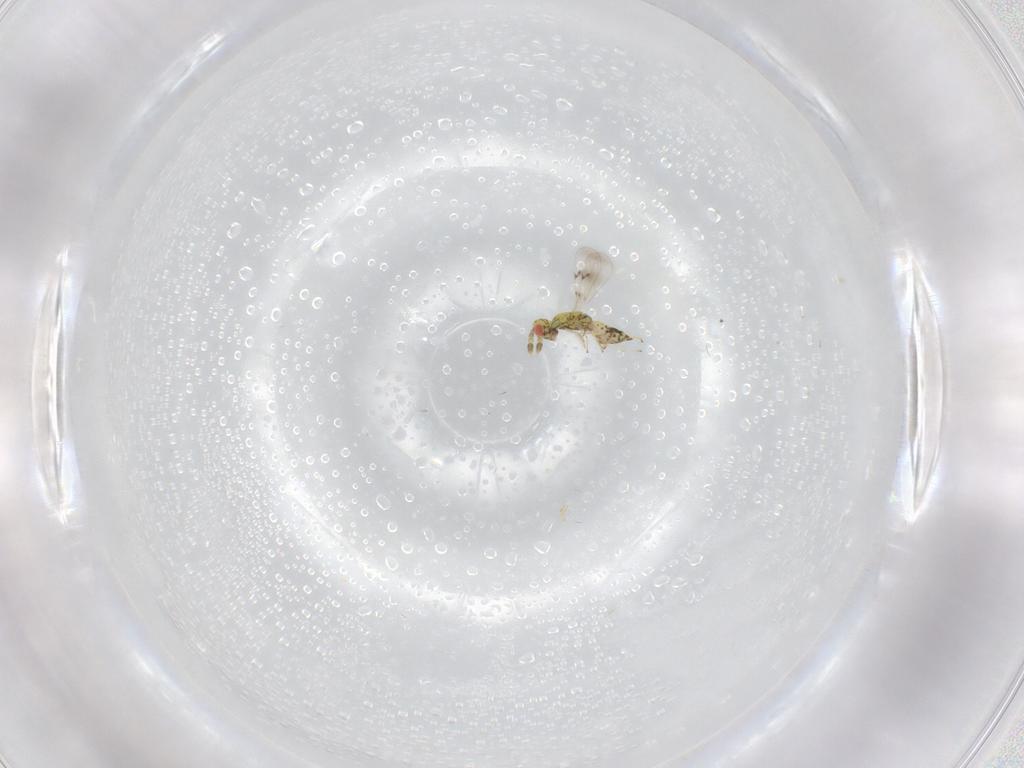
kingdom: Animalia
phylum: Arthropoda
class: Insecta
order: Hymenoptera
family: Eulophidae
